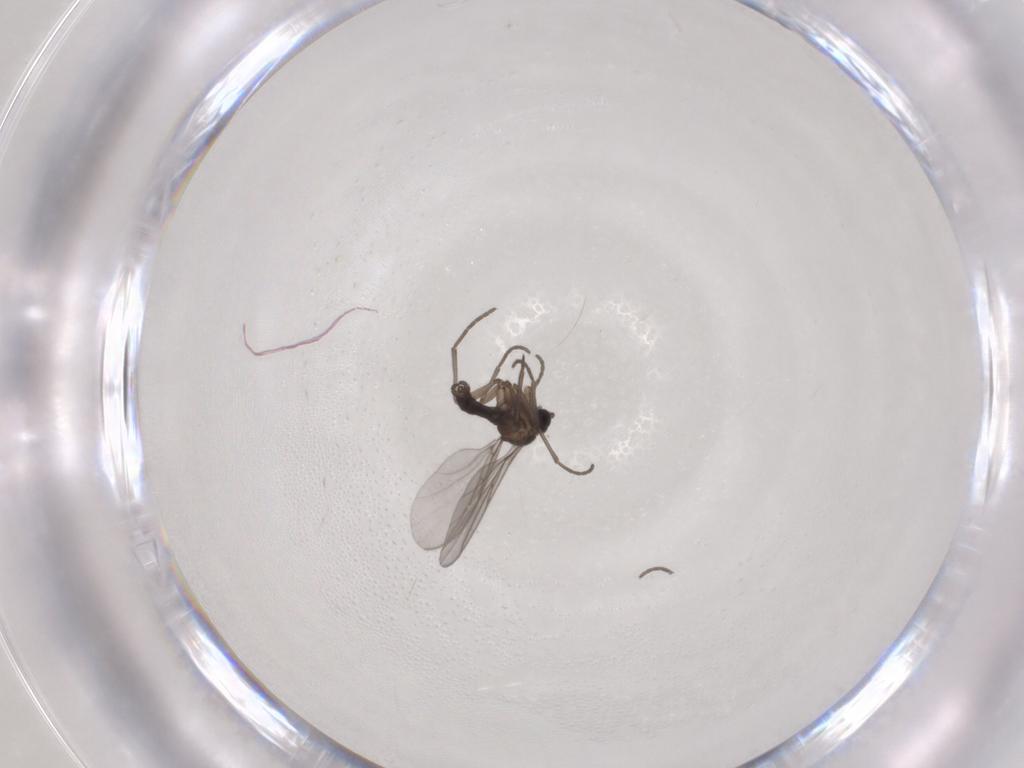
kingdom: Animalia
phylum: Arthropoda
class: Insecta
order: Diptera
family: Sciaridae
